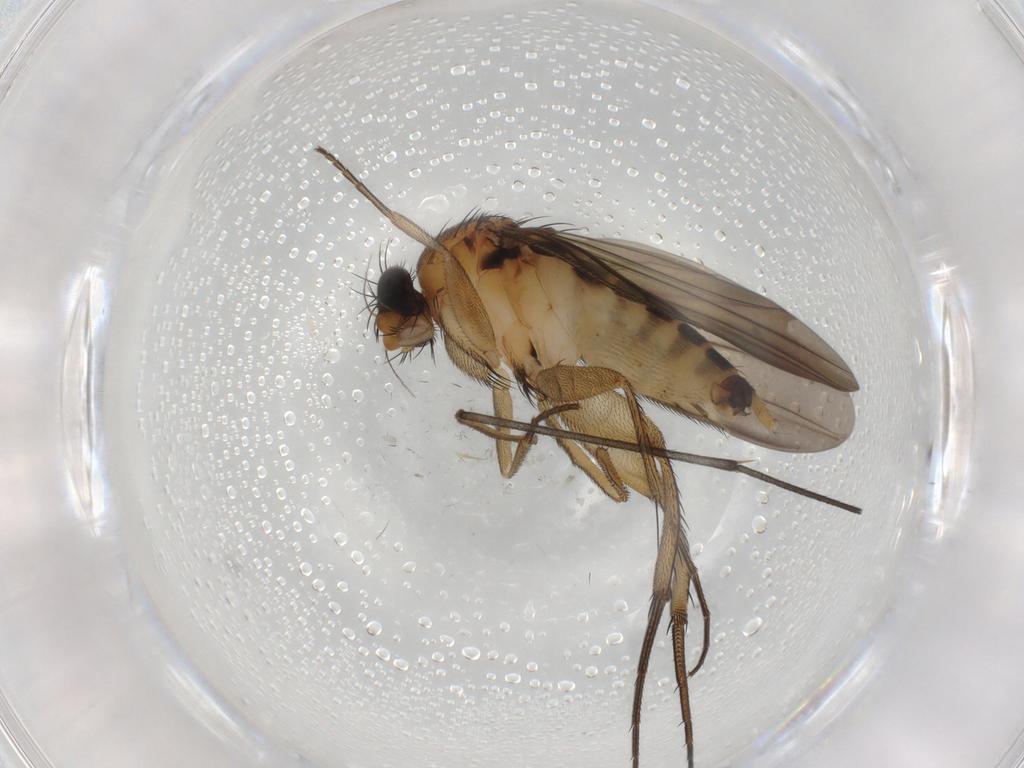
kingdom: Animalia
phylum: Arthropoda
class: Insecta
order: Diptera
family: Phoridae
